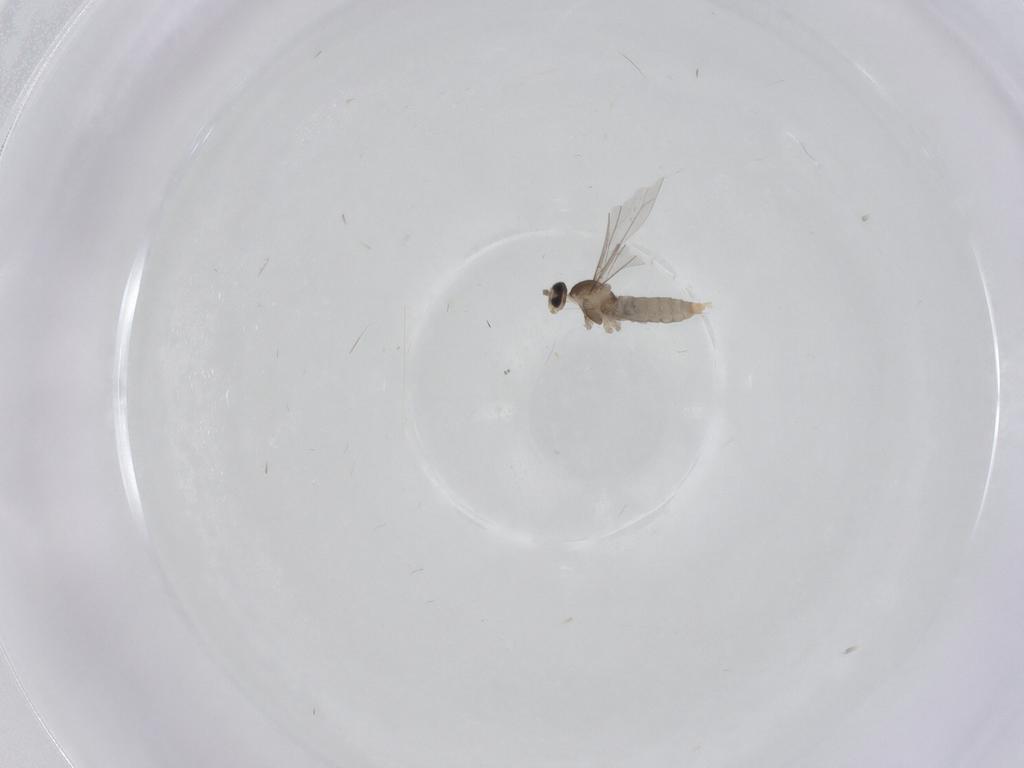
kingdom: Animalia
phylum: Arthropoda
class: Insecta
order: Diptera
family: Cecidomyiidae
